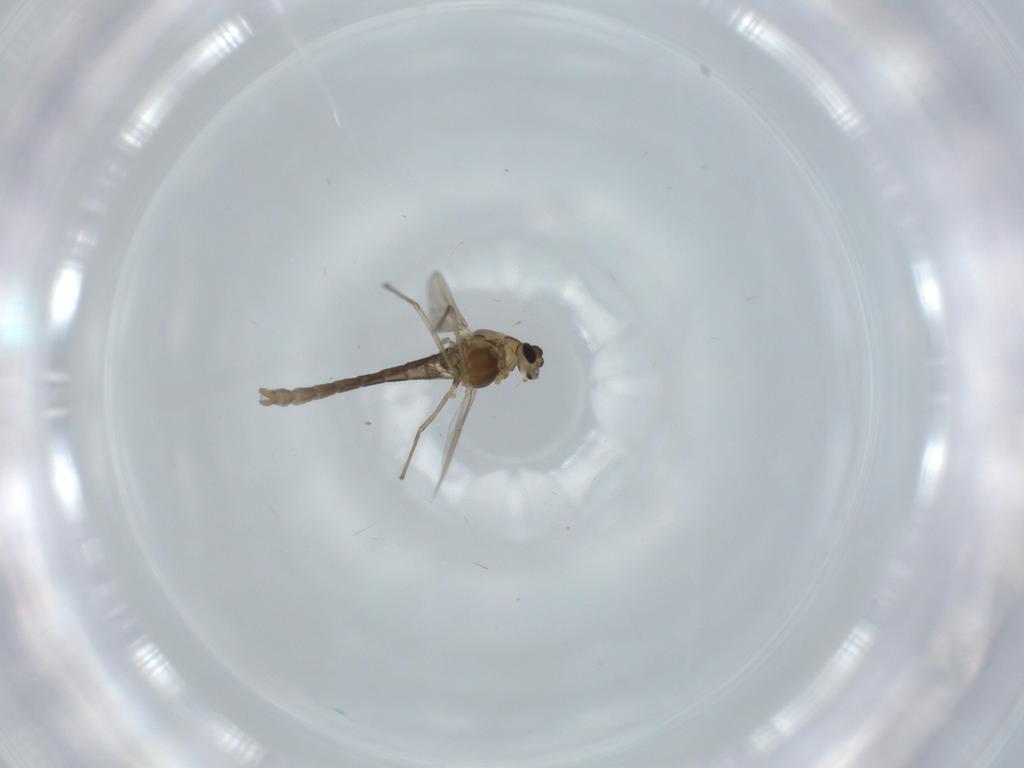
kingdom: Animalia
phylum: Arthropoda
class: Insecta
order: Diptera
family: Chironomidae
